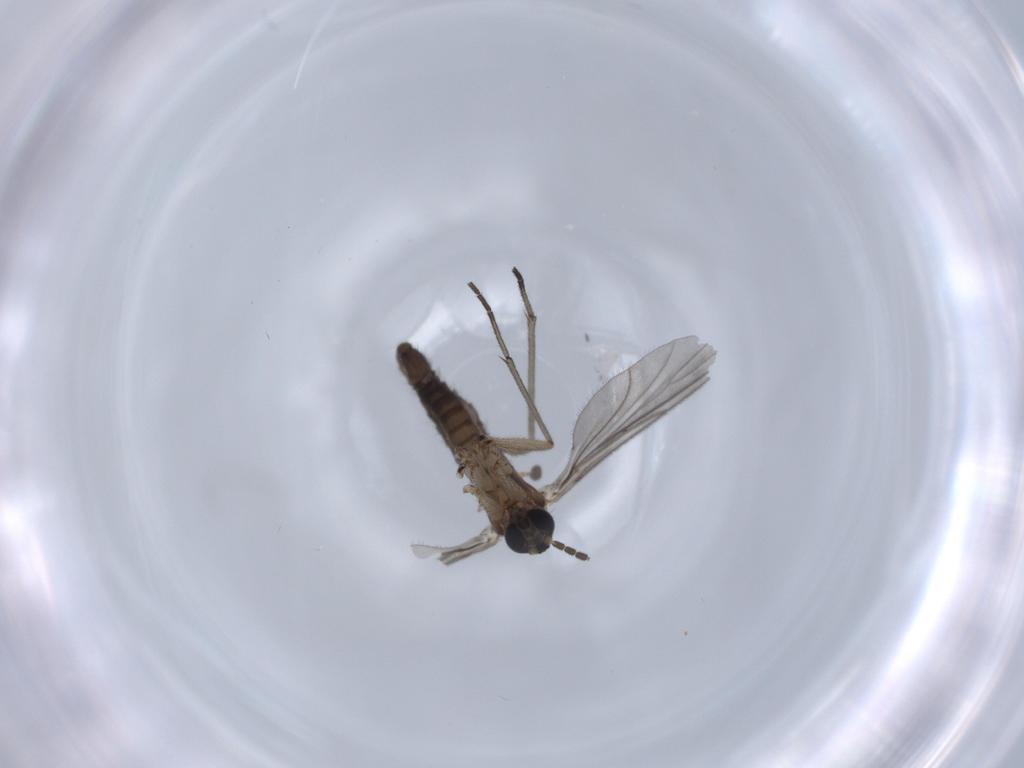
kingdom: Animalia
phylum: Arthropoda
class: Insecta
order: Diptera
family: Sciaridae
